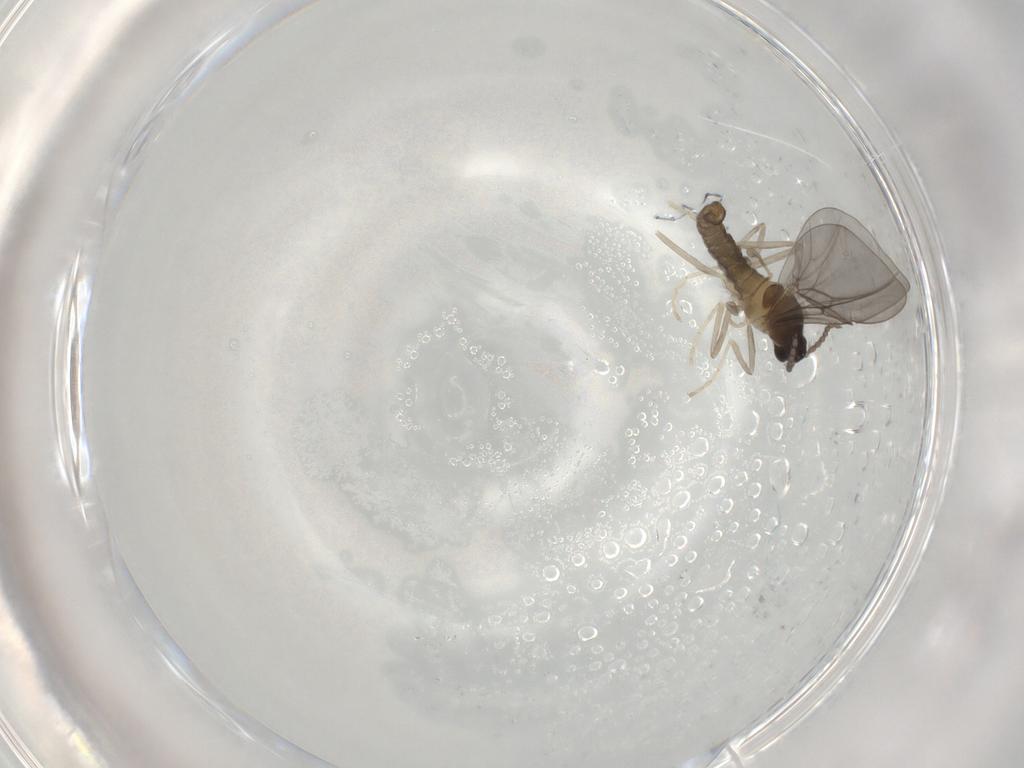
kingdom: Animalia
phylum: Arthropoda
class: Insecta
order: Diptera
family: Cecidomyiidae
